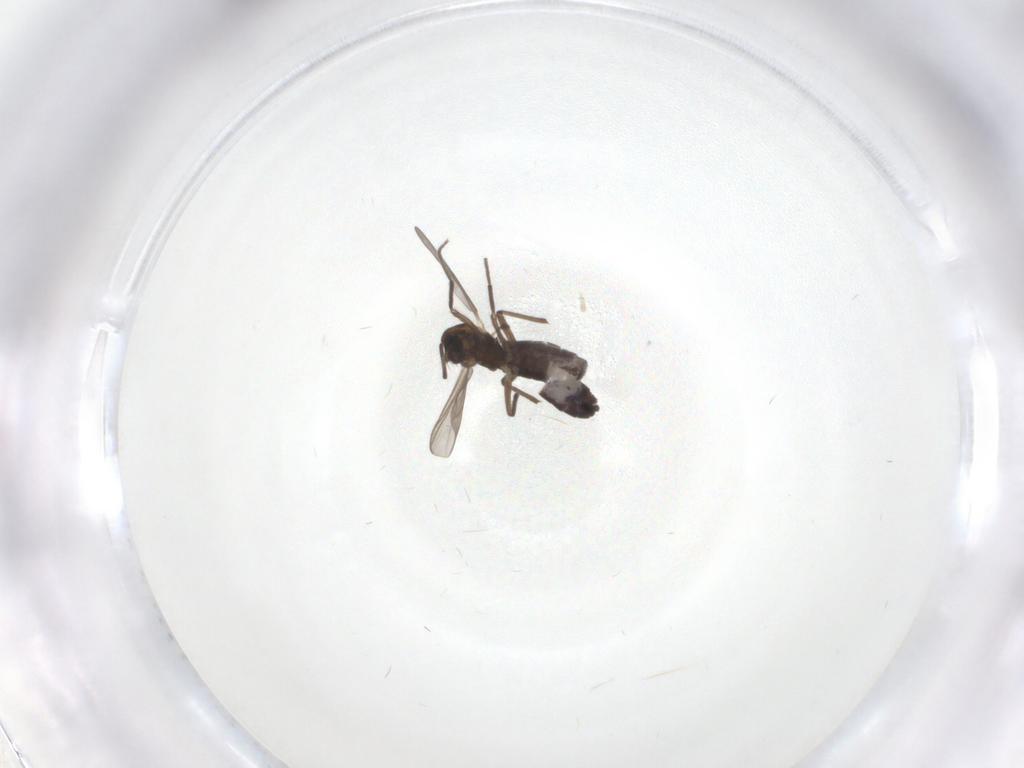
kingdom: Animalia
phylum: Arthropoda
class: Insecta
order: Diptera
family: Chironomidae
